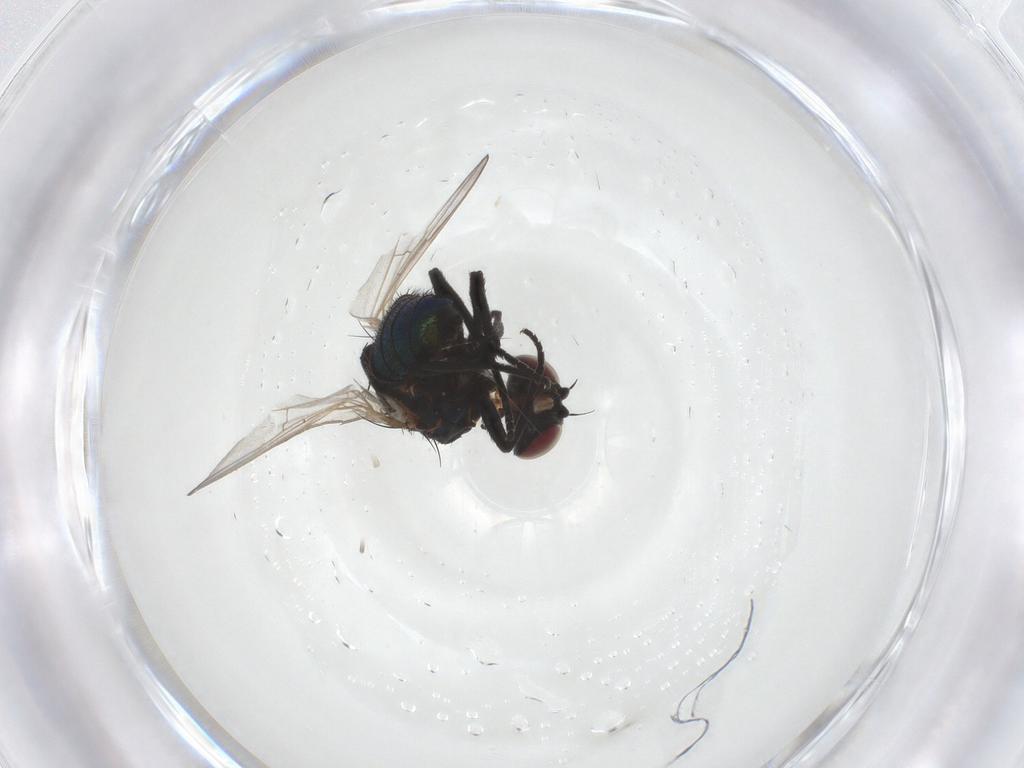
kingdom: Animalia
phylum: Arthropoda
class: Insecta
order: Diptera
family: Agromyzidae
